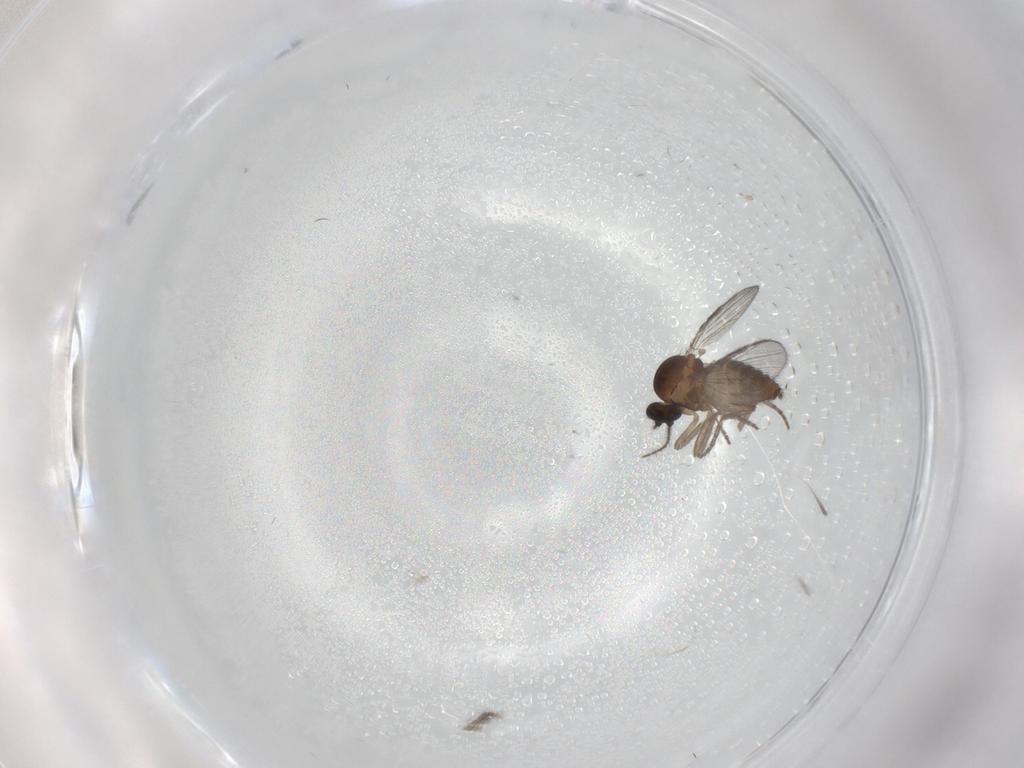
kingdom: Animalia
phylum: Arthropoda
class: Insecta
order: Diptera
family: Ceratopogonidae
